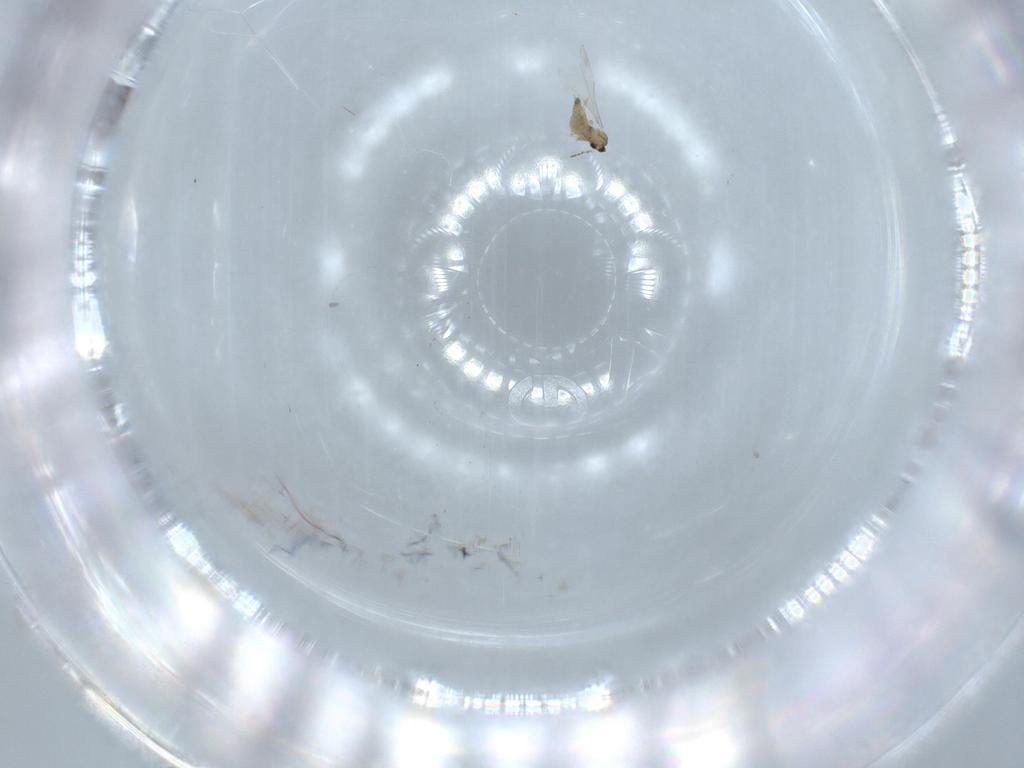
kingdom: Animalia
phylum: Arthropoda
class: Insecta
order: Diptera
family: Cecidomyiidae
